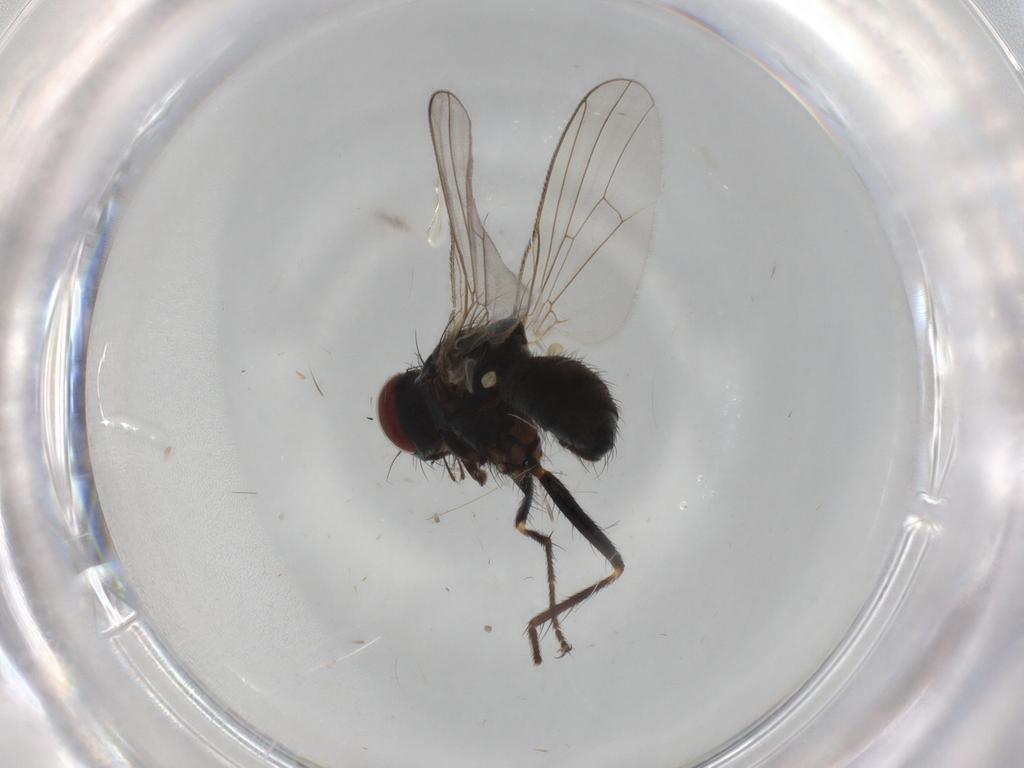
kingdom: Animalia
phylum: Arthropoda
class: Insecta
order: Diptera
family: Muscidae
